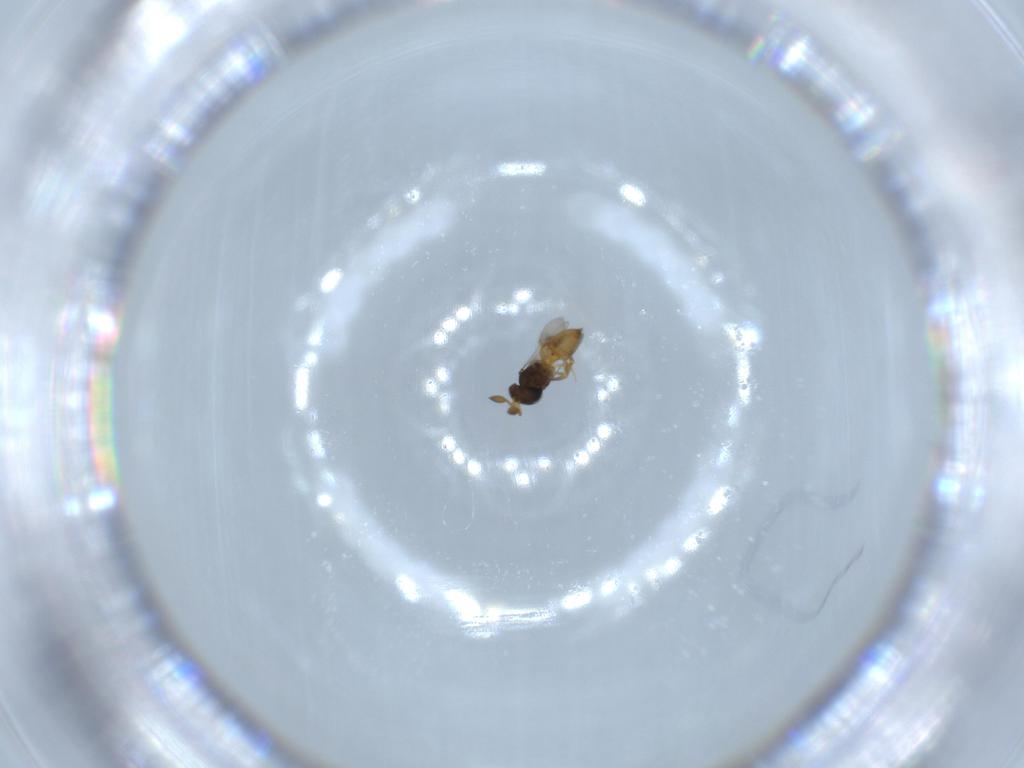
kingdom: Animalia
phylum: Arthropoda
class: Insecta
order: Hymenoptera
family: Scelionidae
